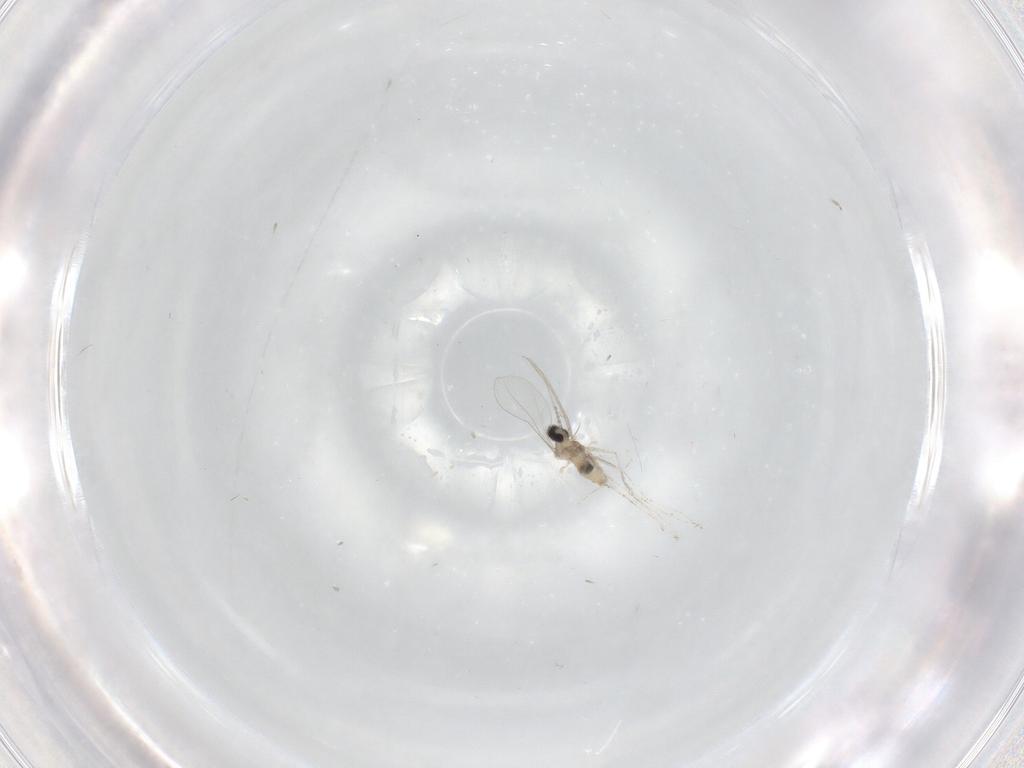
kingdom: Animalia
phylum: Arthropoda
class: Insecta
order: Diptera
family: Cecidomyiidae
